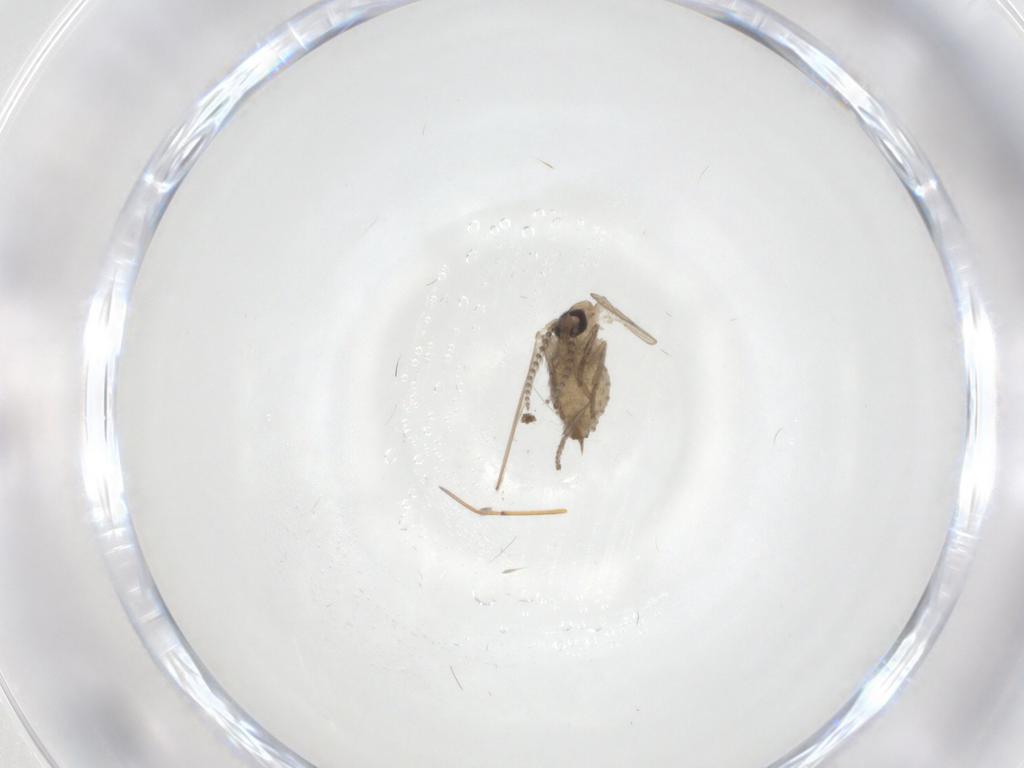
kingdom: Animalia
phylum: Arthropoda
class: Insecta
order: Diptera
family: Psychodidae
